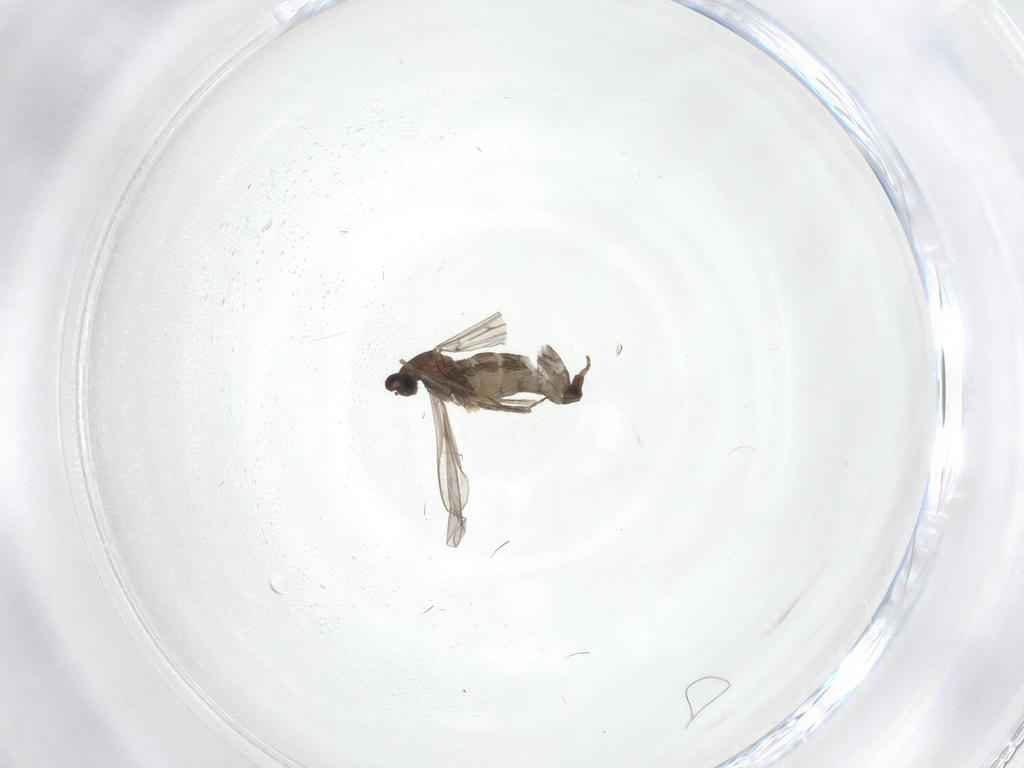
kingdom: Animalia
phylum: Arthropoda
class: Insecta
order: Diptera
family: Cecidomyiidae
